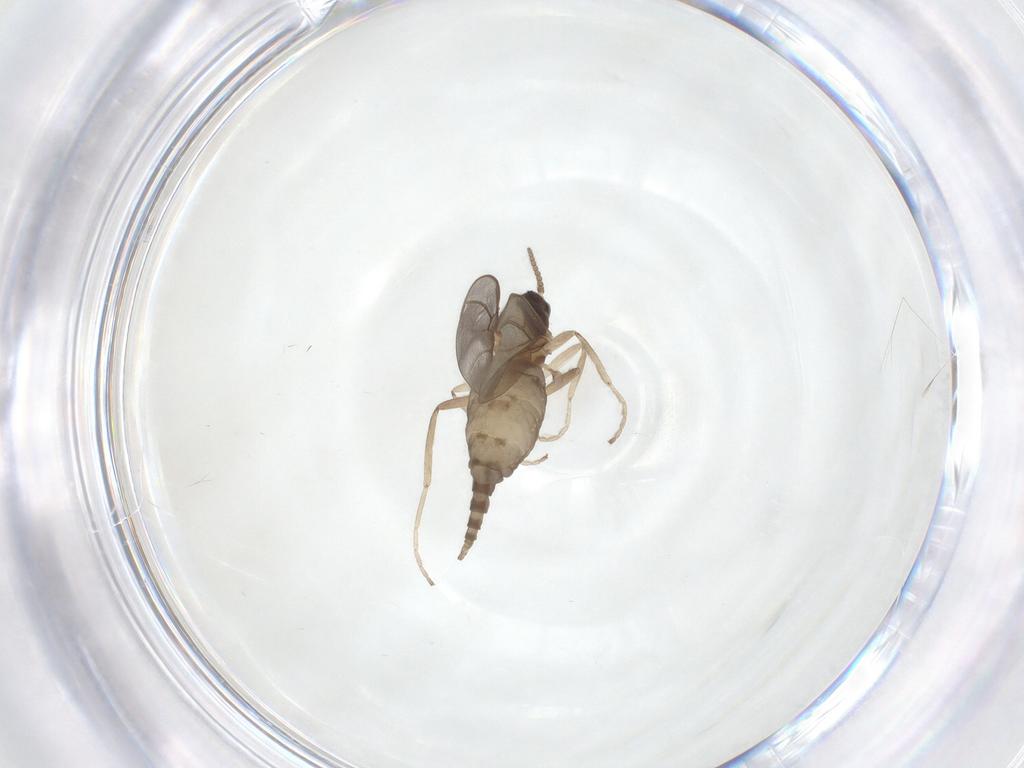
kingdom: Animalia
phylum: Arthropoda
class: Insecta
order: Diptera
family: Cecidomyiidae
